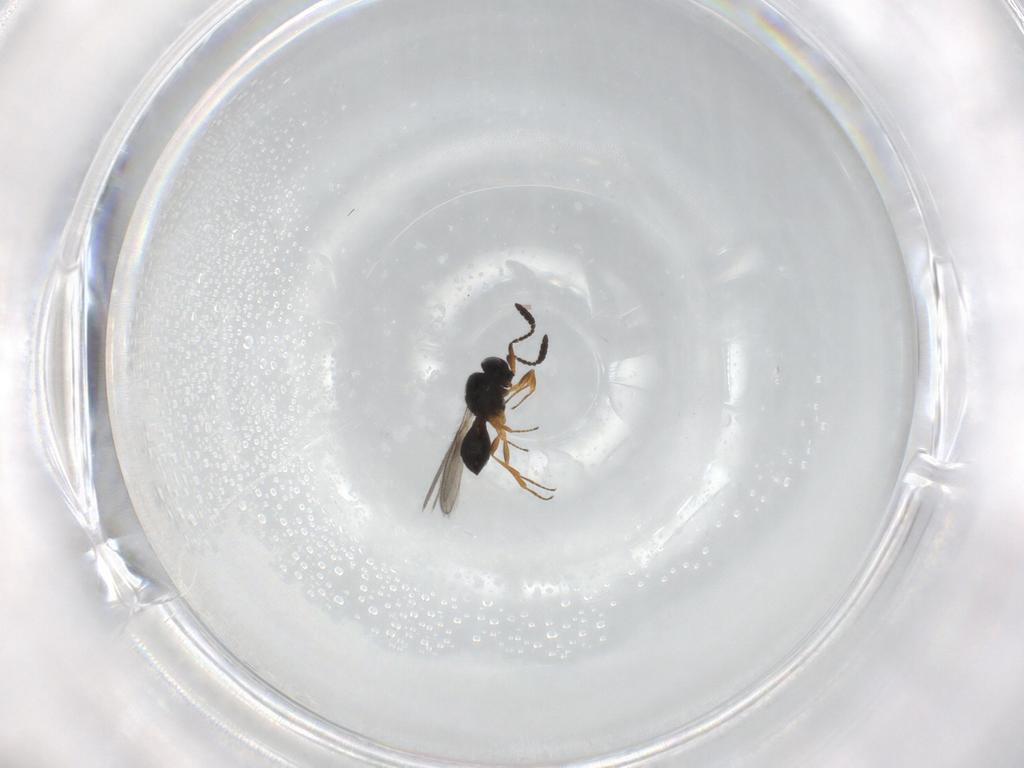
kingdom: Animalia
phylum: Arthropoda
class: Insecta
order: Hymenoptera
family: Scelionidae
